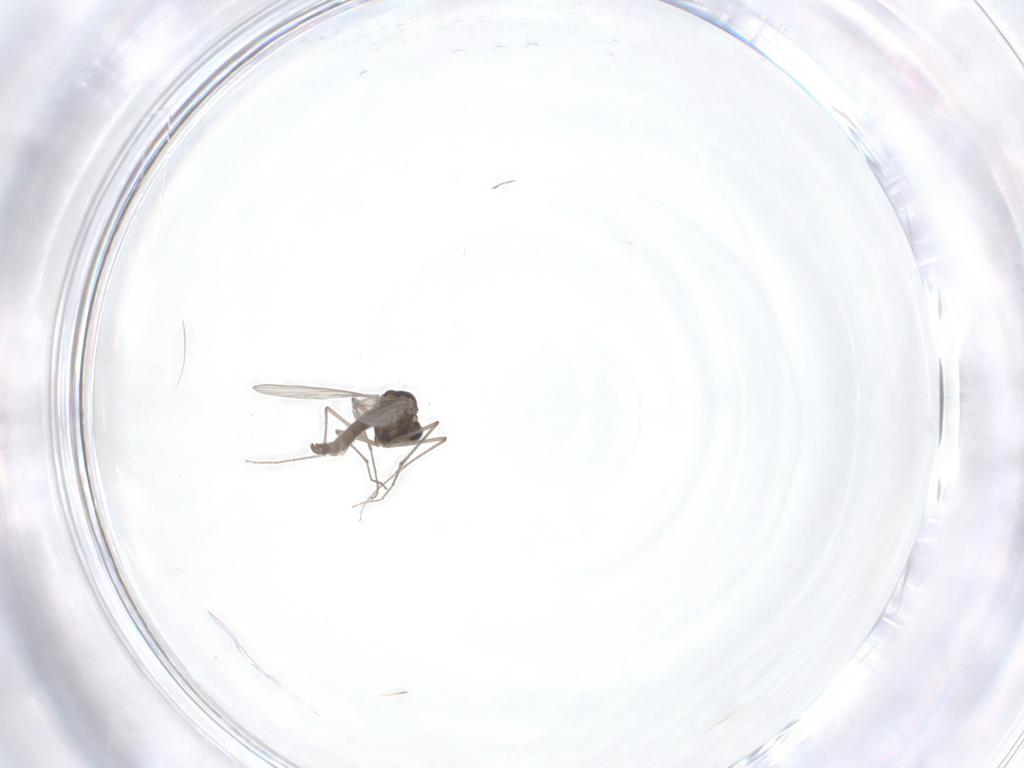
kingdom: Animalia
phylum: Arthropoda
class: Insecta
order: Diptera
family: Chironomidae
